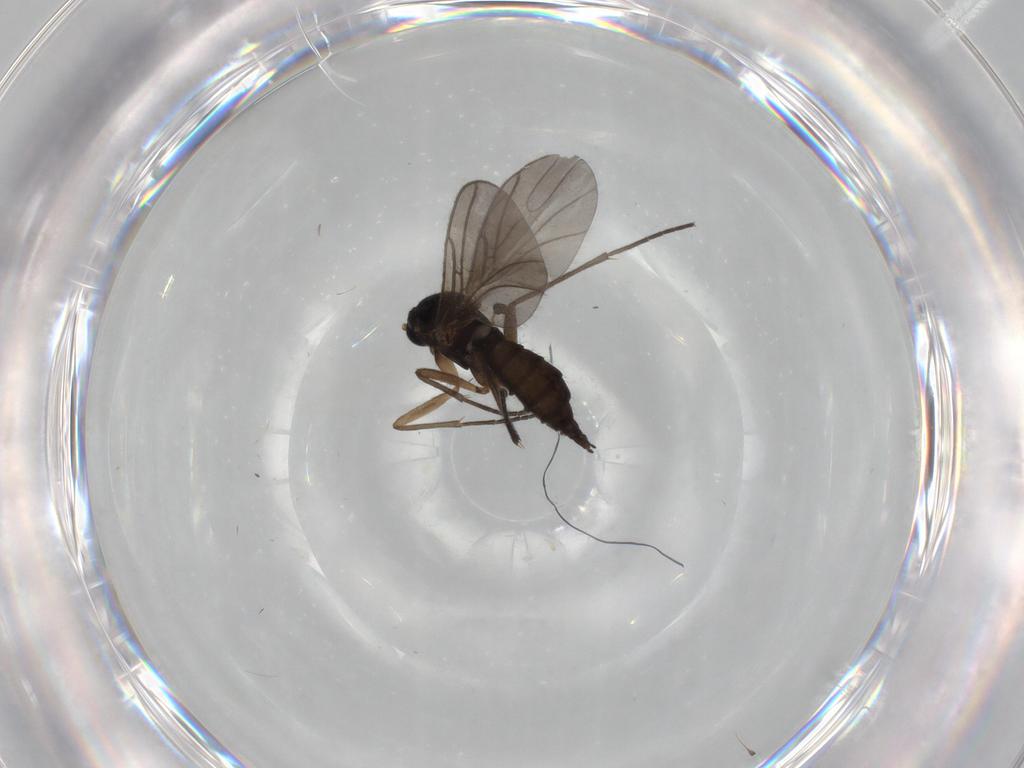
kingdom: Animalia
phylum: Arthropoda
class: Insecta
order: Diptera
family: Sciaridae
